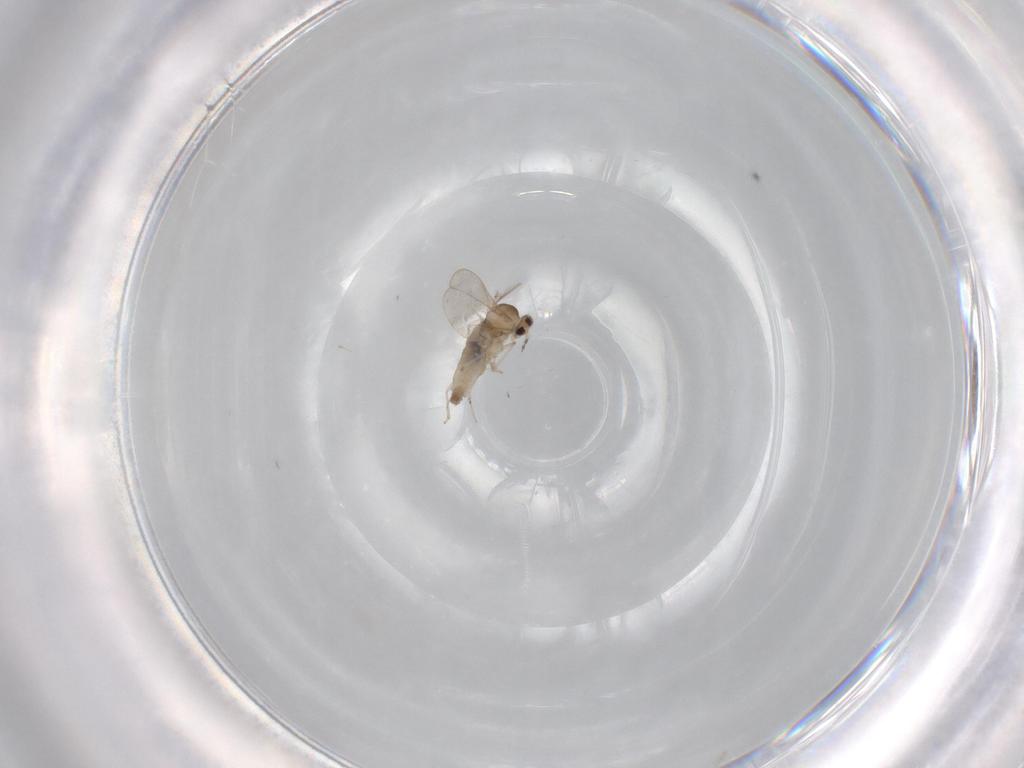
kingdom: Animalia
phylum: Arthropoda
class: Insecta
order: Diptera
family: Cecidomyiidae
